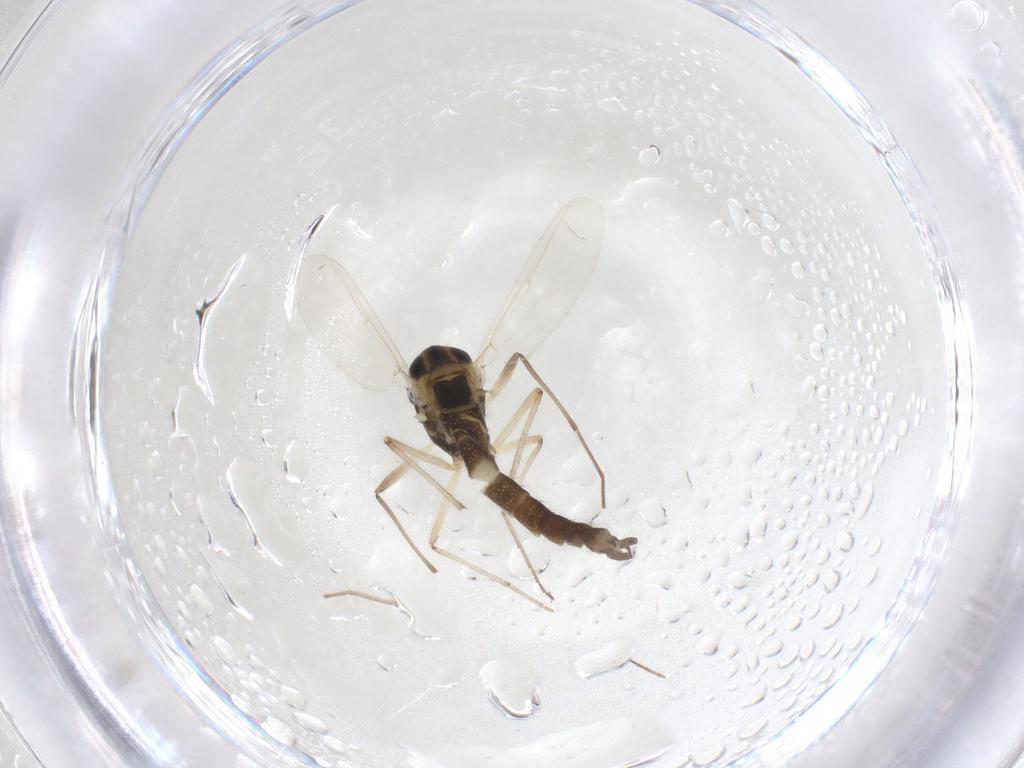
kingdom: Animalia
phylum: Arthropoda
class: Insecta
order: Diptera
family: Chironomidae
